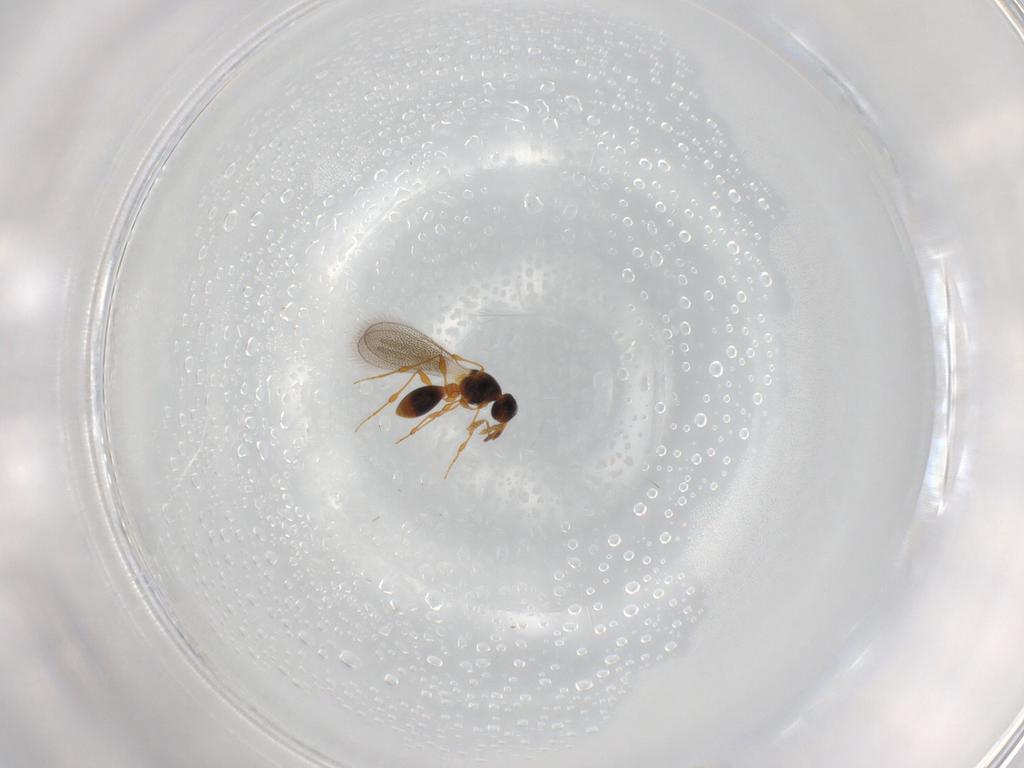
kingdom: Animalia
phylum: Arthropoda
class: Insecta
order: Hymenoptera
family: Platygastridae
